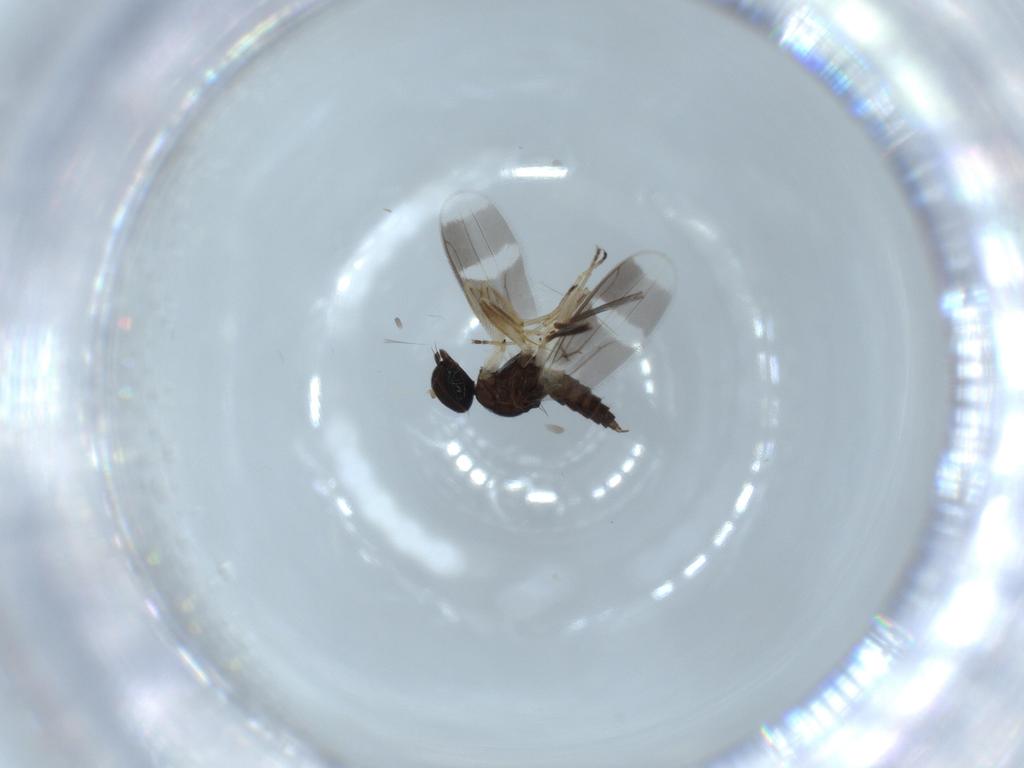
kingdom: Animalia
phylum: Arthropoda
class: Insecta
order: Diptera
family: Hybotidae
